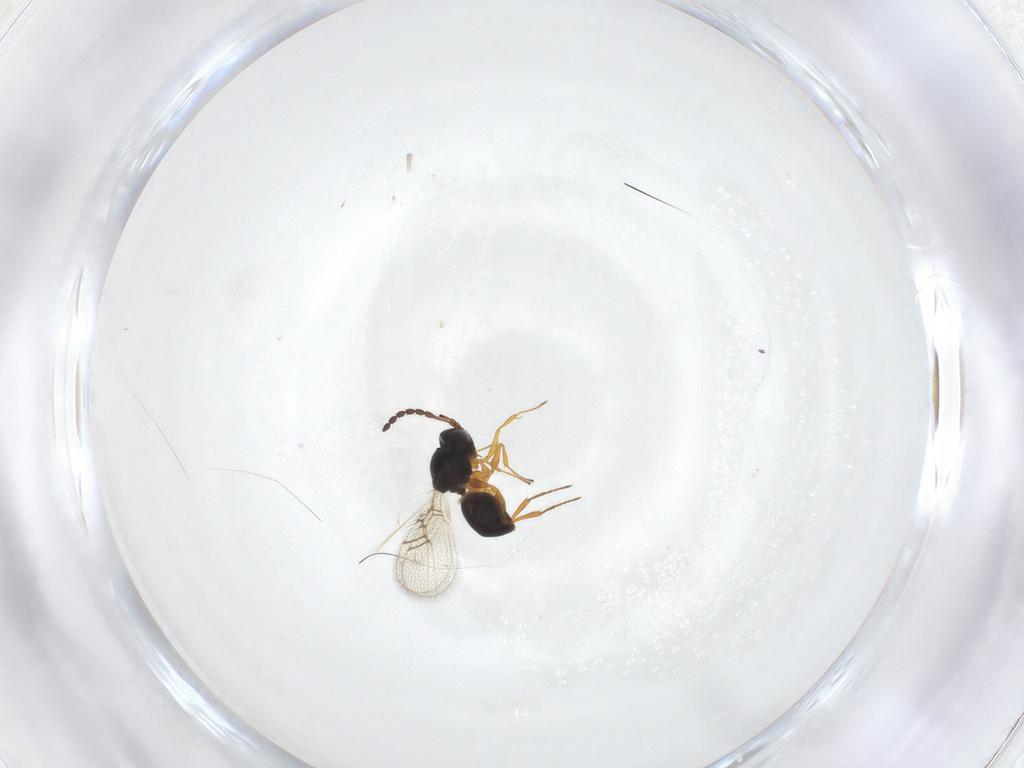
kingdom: Animalia
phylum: Arthropoda
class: Insecta
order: Hymenoptera
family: Figitidae
